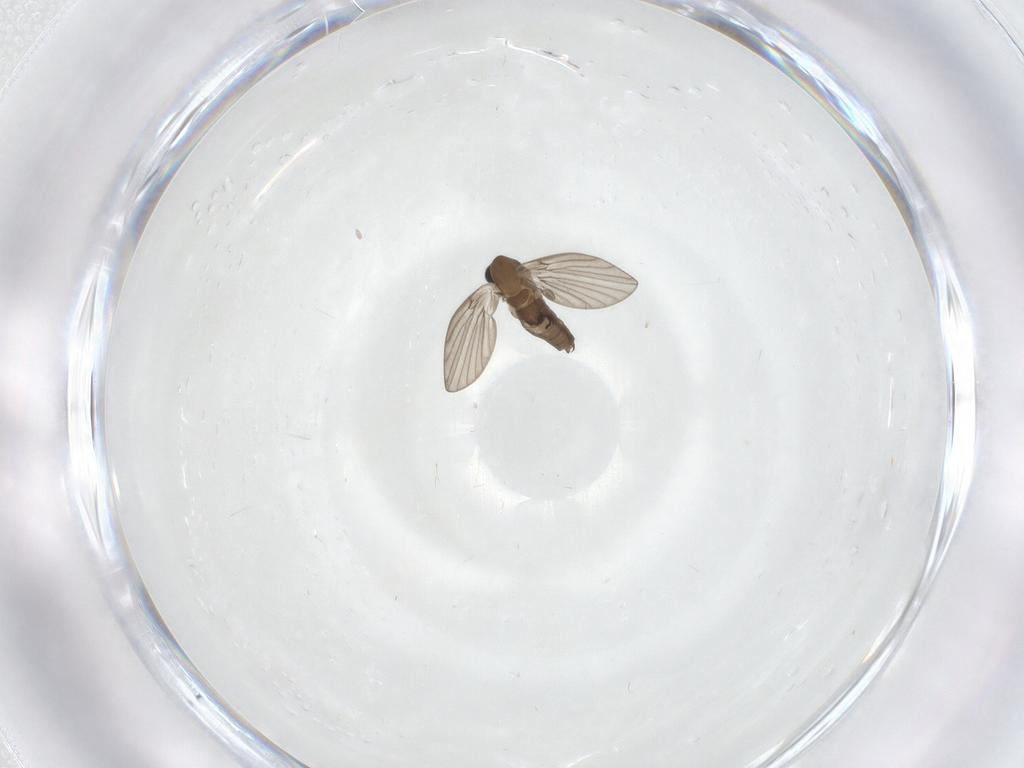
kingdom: Animalia
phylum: Arthropoda
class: Insecta
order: Diptera
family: Psychodidae
